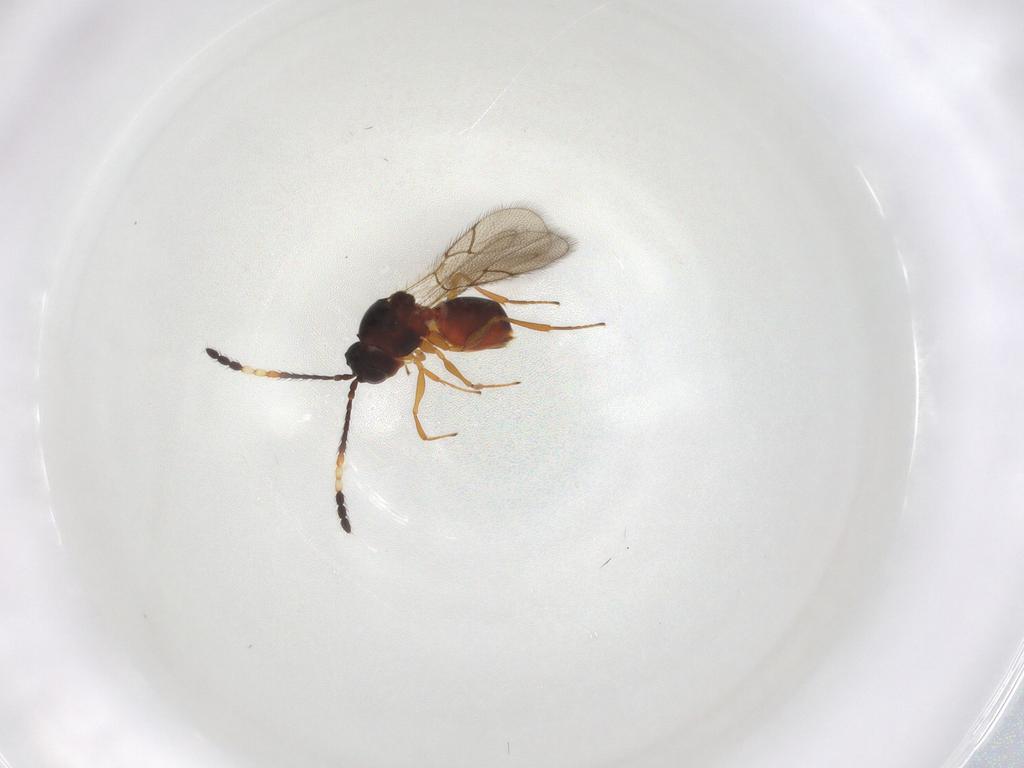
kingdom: Animalia
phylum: Arthropoda
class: Insecta
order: Hymenoptera
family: Figitidae
